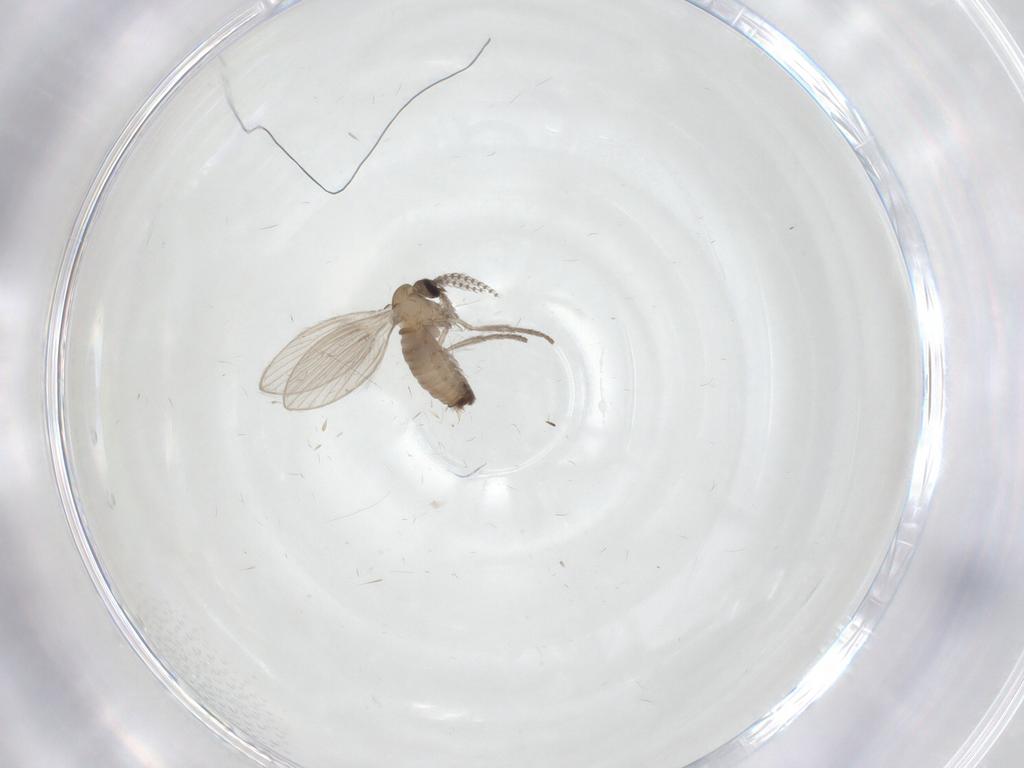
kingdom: Animalia
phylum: Arthropoda
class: Insecta
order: Diptera
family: Psychodidae
